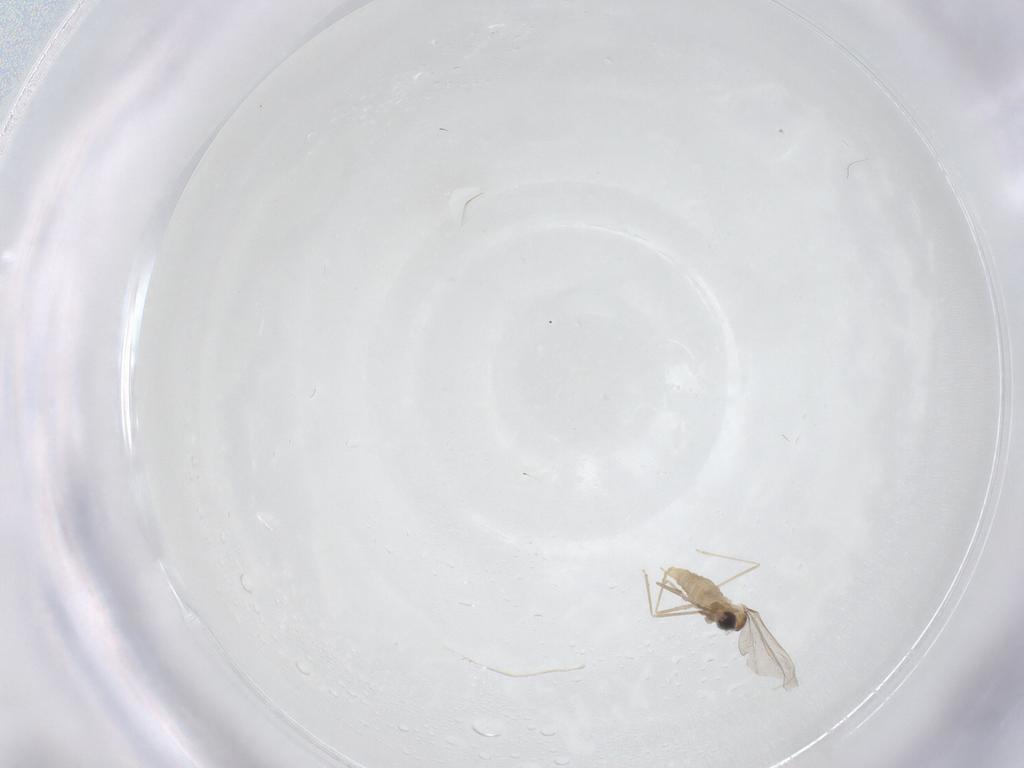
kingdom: Animalia
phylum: Arthropoda
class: Insecta
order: Diptera
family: Cecidomyiidae
